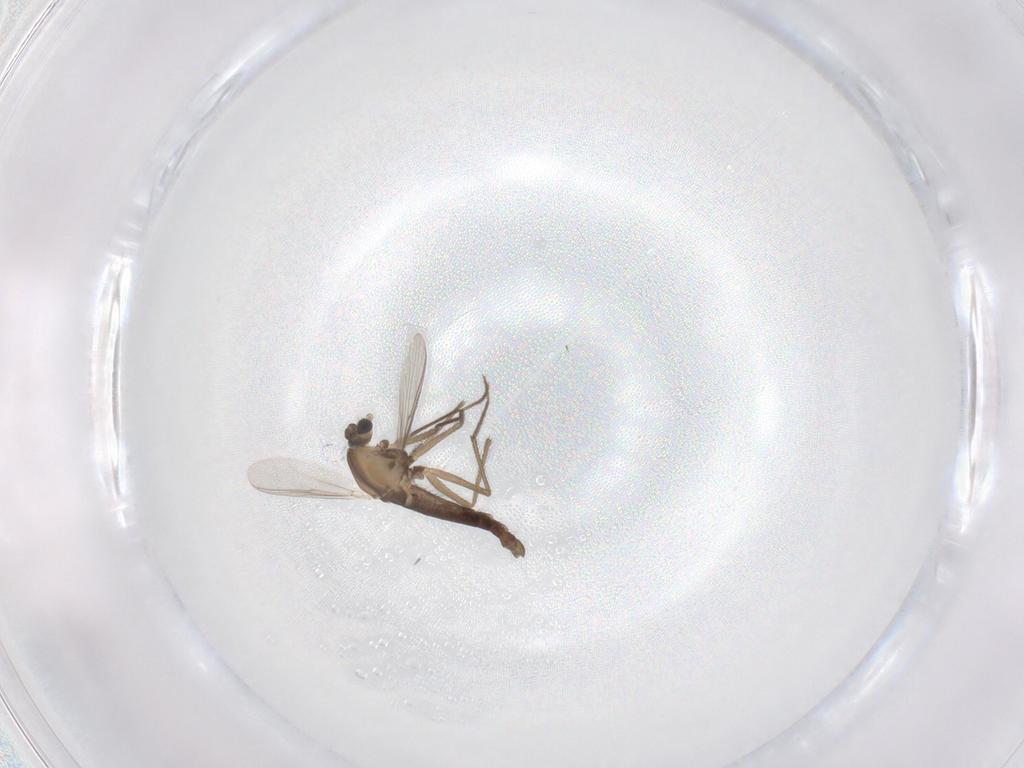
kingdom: Animalia
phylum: Arthropoda
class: Insecta
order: Diptera
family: Chironomidae
